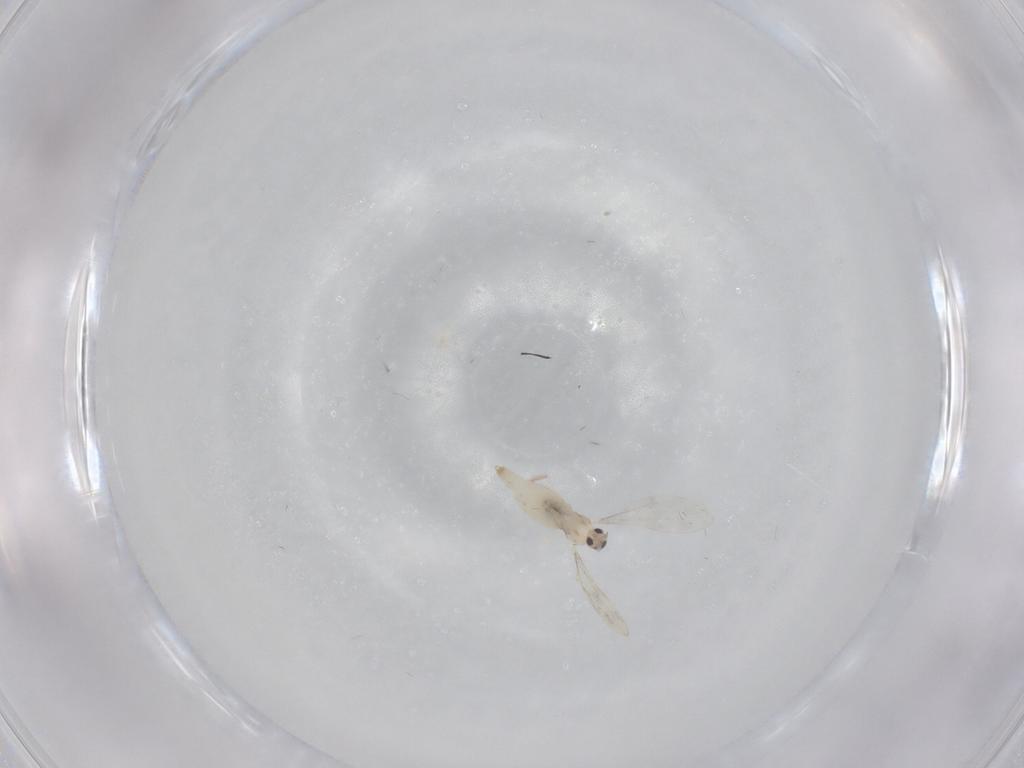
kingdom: Animalia
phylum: Arthropoda
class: Insecta
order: Diptera
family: Cecidomyiidae
